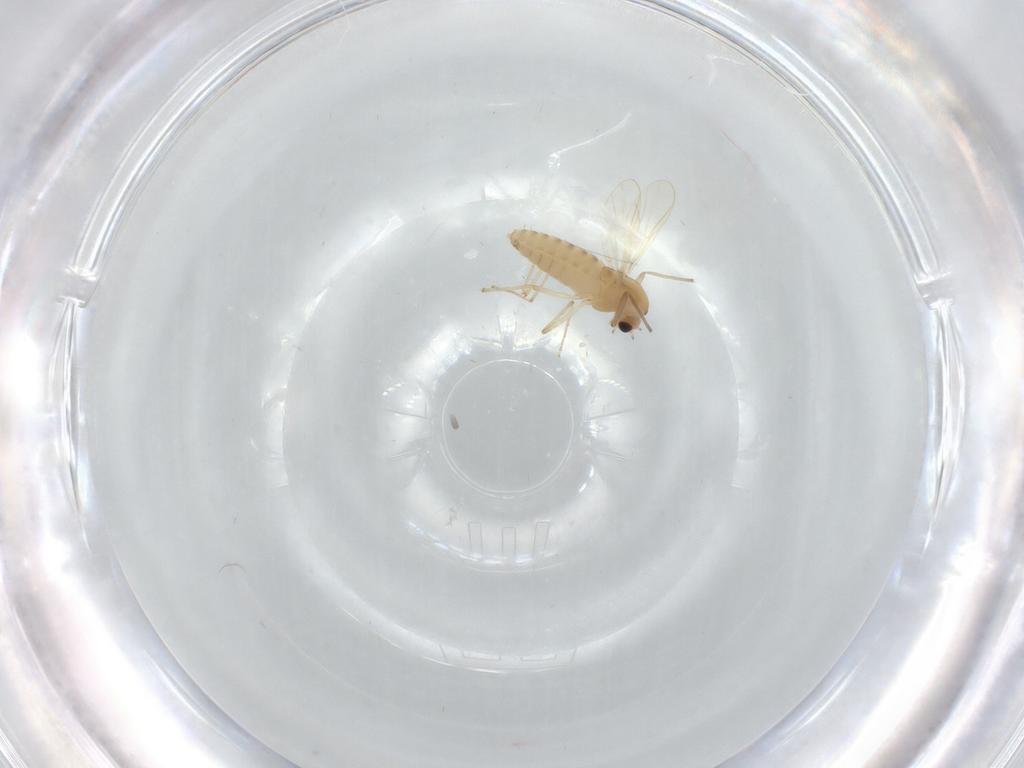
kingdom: Animalia
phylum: Arthropoda
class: Insecta
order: Diptera
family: Chironomidae
